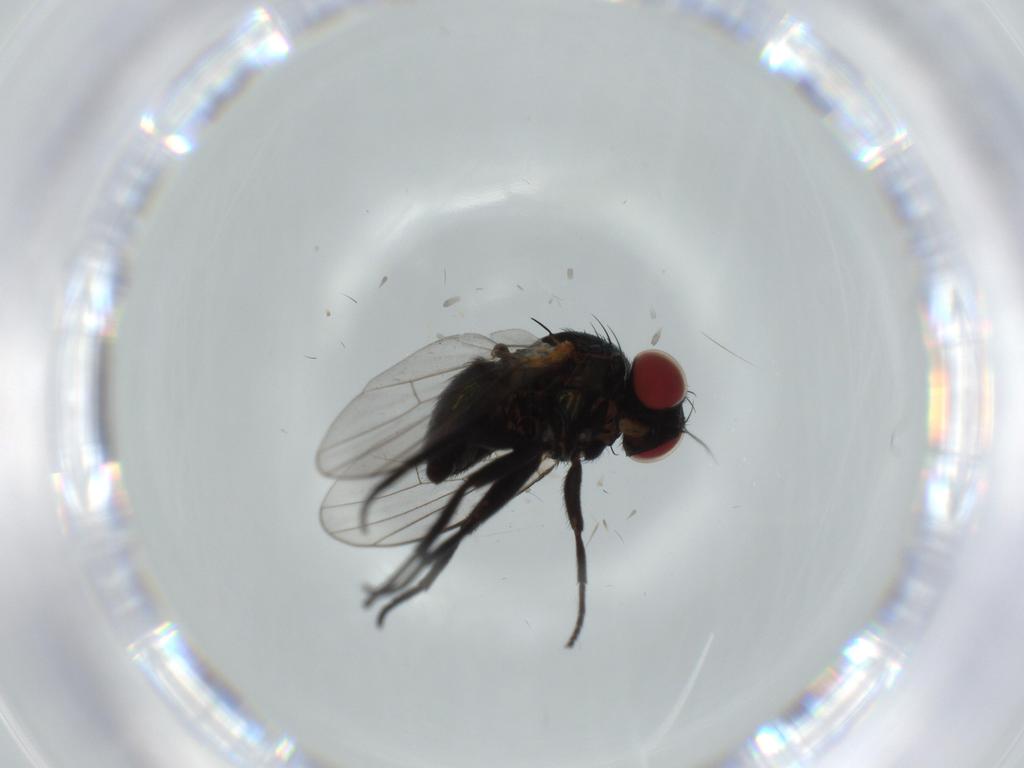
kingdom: Animalia
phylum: Arthropoda
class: Insecta
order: Diptera
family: Agromyzidae
